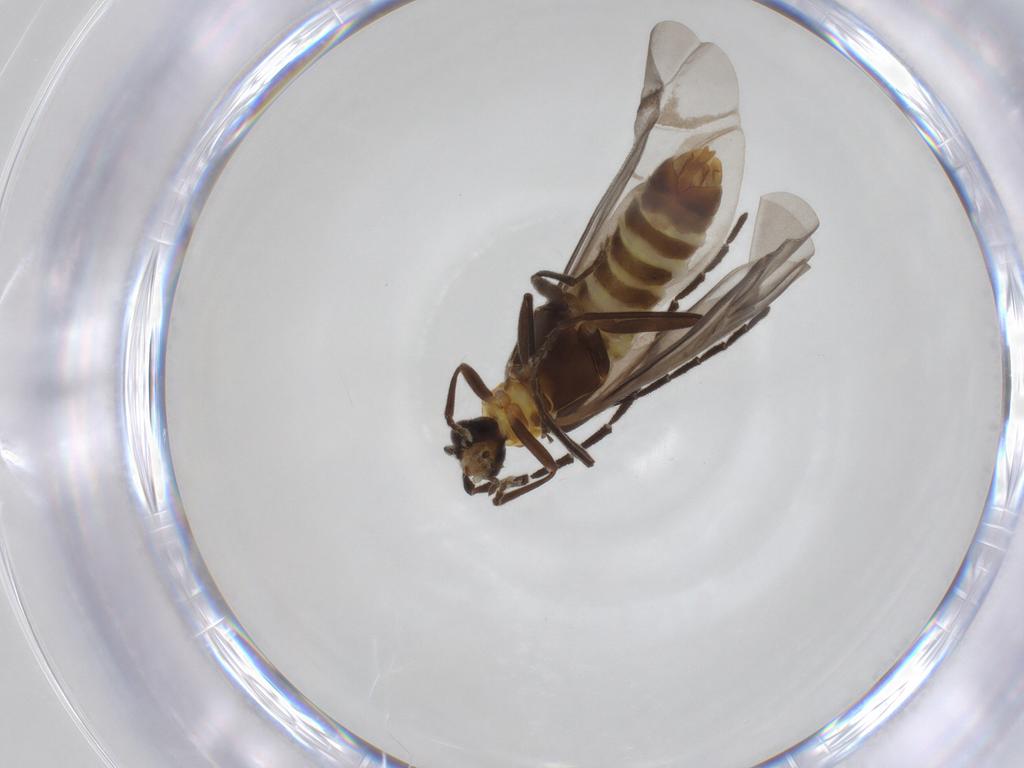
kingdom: Animalia
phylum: Arthropoda
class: Insecta
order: Coleoptera
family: Cantharidae
